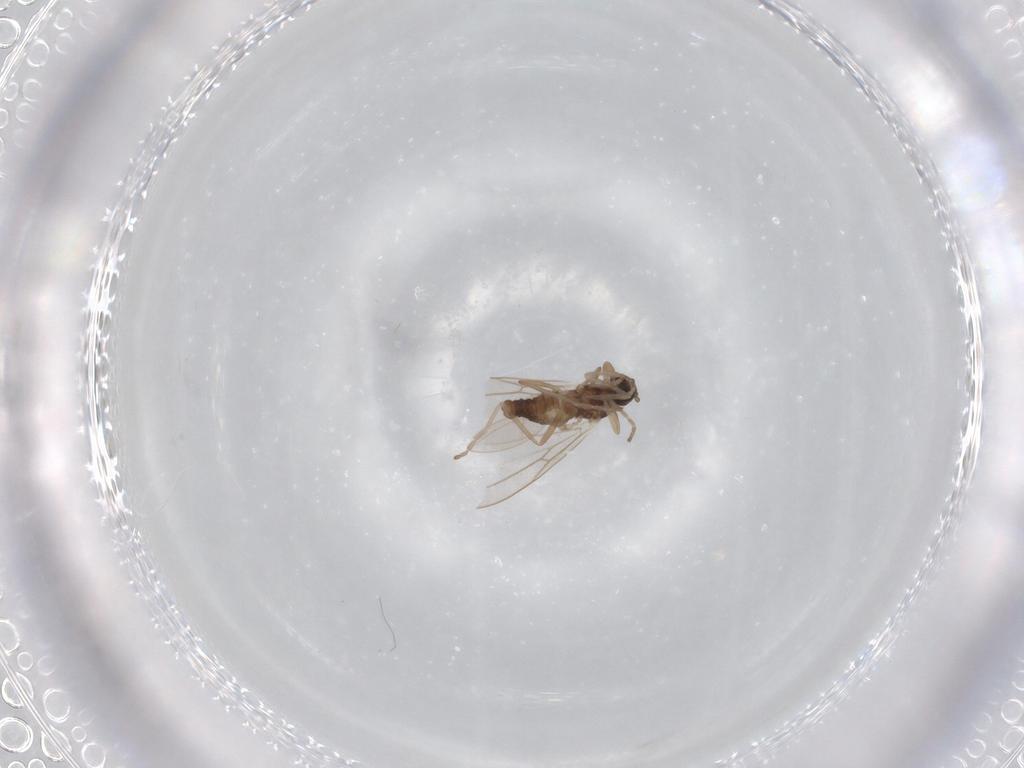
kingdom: Animalia
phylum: Arthropoda
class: Insecta
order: Diptera
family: Cecidomyiidae
